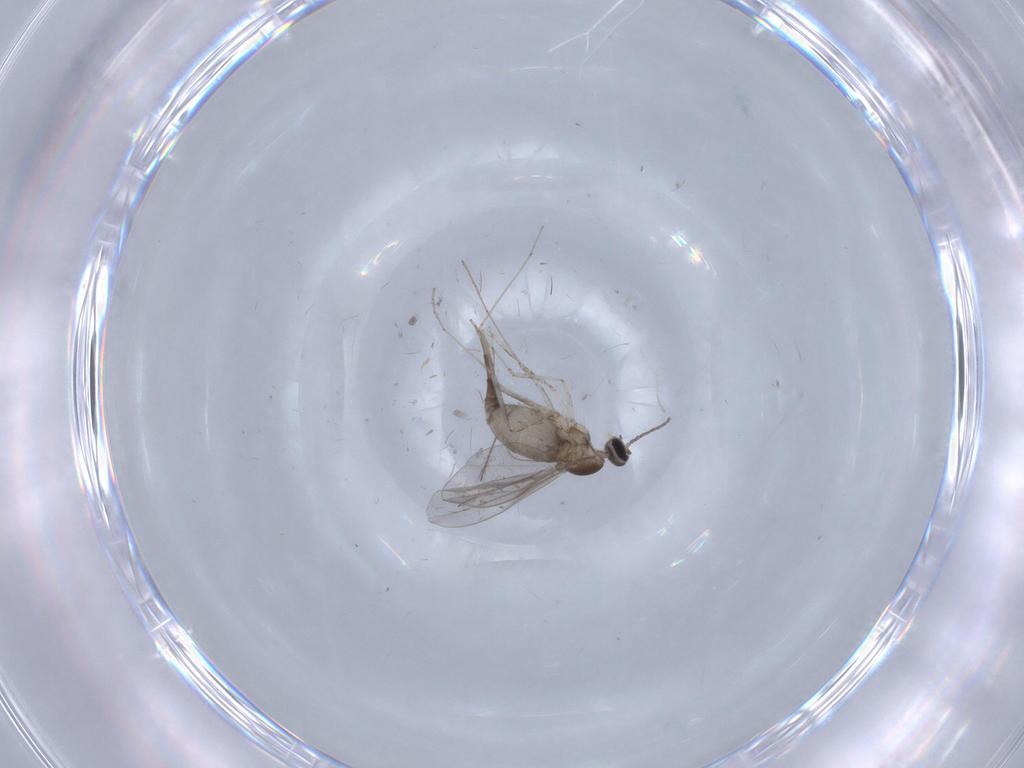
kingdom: Animalia
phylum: Arthropoda
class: Insecta
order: Diptera
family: Cecidomyiidae
